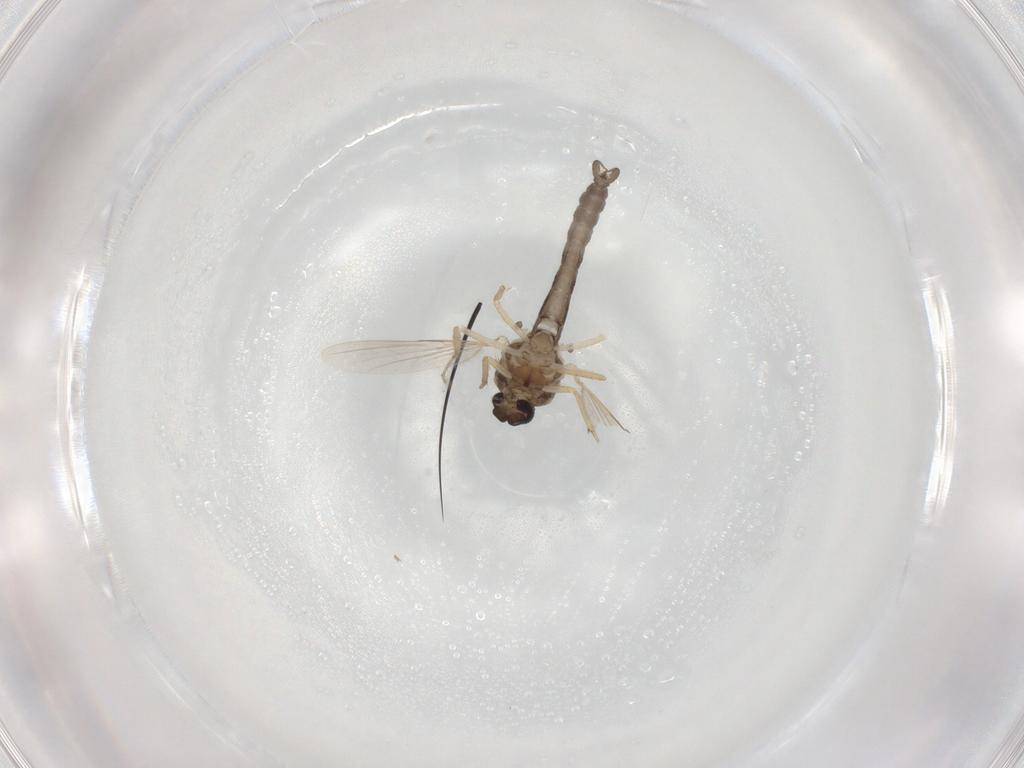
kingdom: Animalia
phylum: Arthropoda
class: Insecta
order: Diptera
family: Ceratopogonidae
